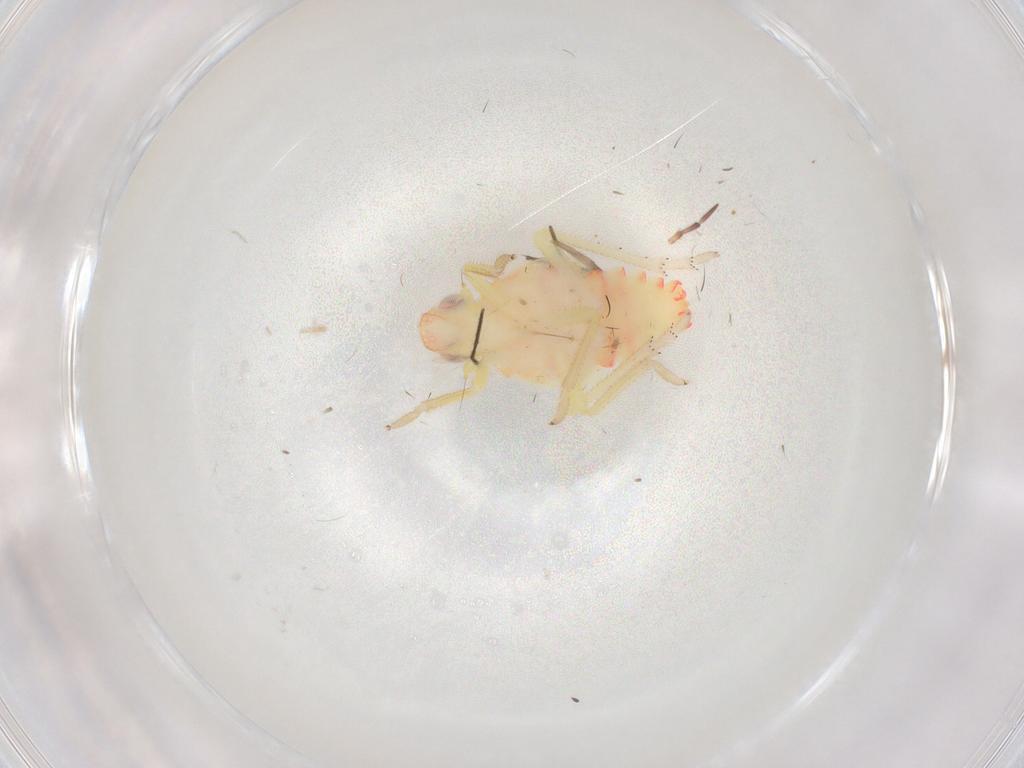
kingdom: Animalia
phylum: Arthropoda
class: Insecta
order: Hemiptera
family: Tropiduchidae
